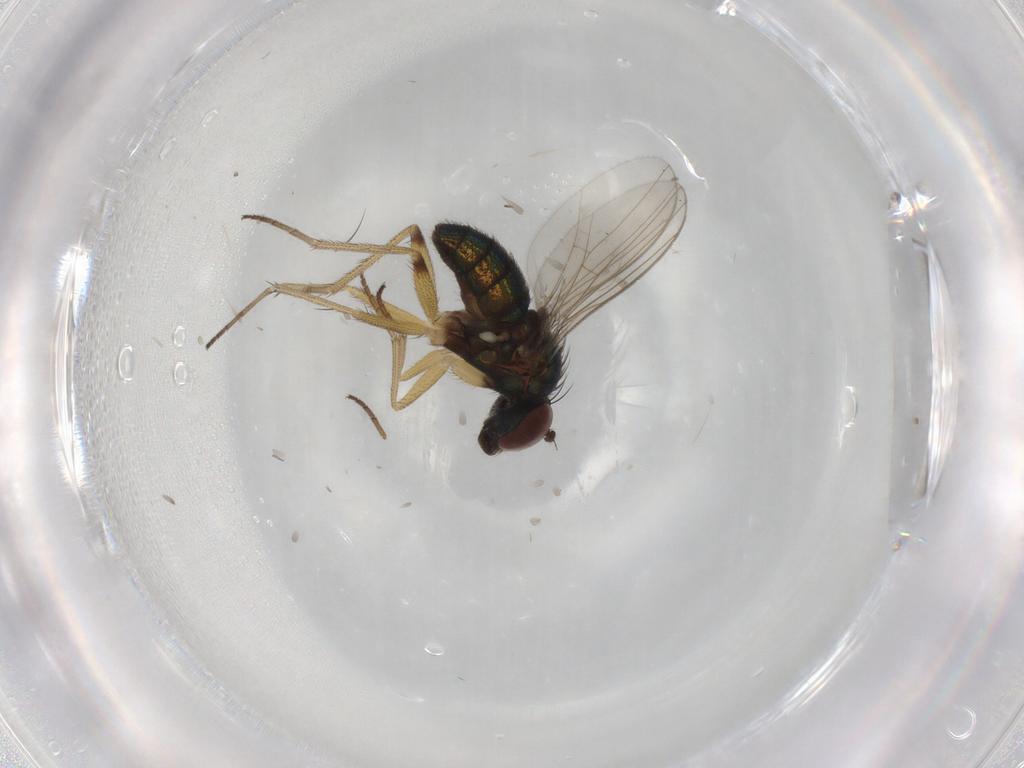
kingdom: Animalia
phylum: Arthropoda
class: Insecta
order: Diptera
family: Dolichopodidae
